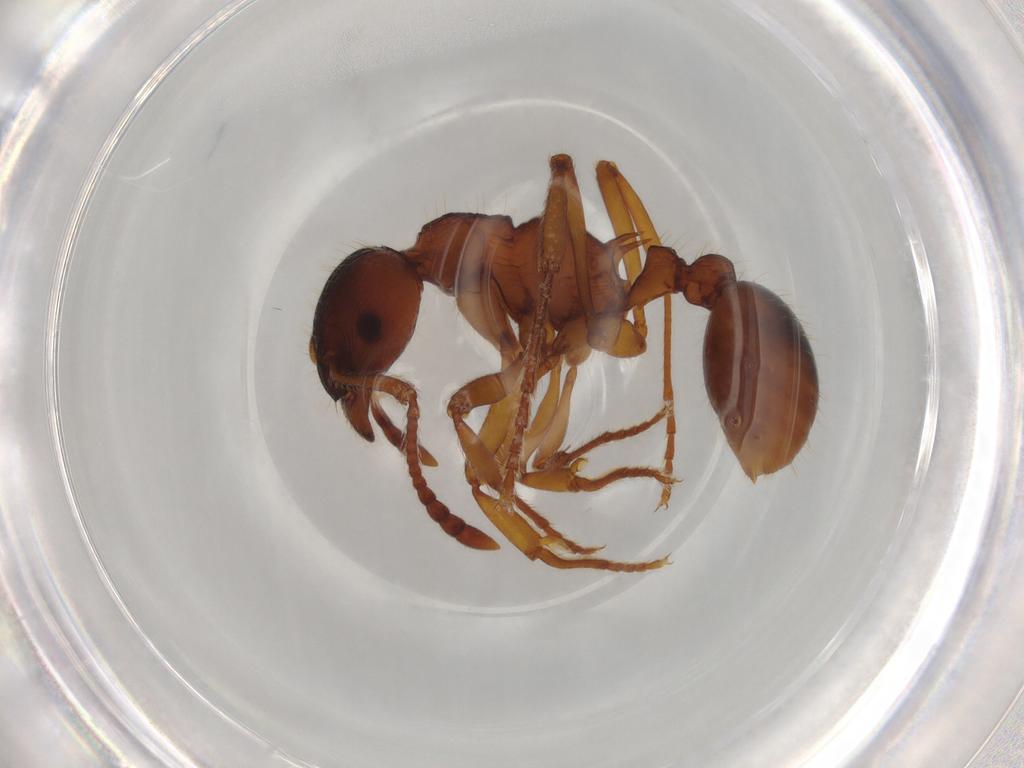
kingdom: Animalia
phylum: Arthropoda
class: Insecta
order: Hymenoptera
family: Formicidae
